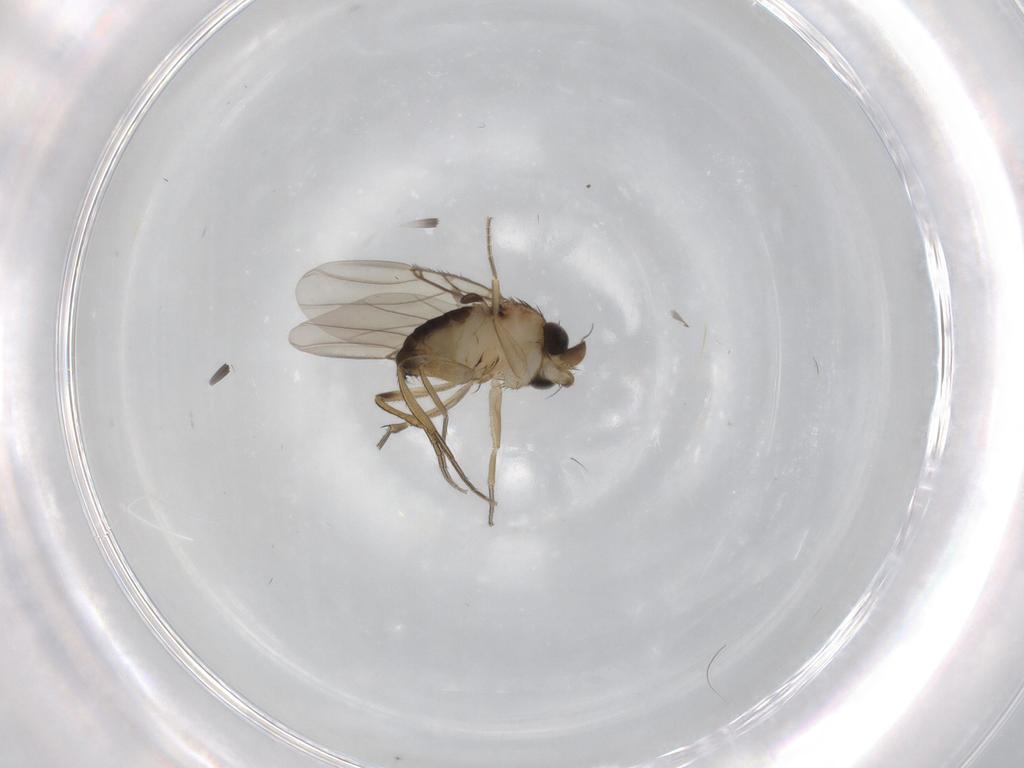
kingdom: Animalia
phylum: Arthropoda
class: Insecta
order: Diptera
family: Phoridae
